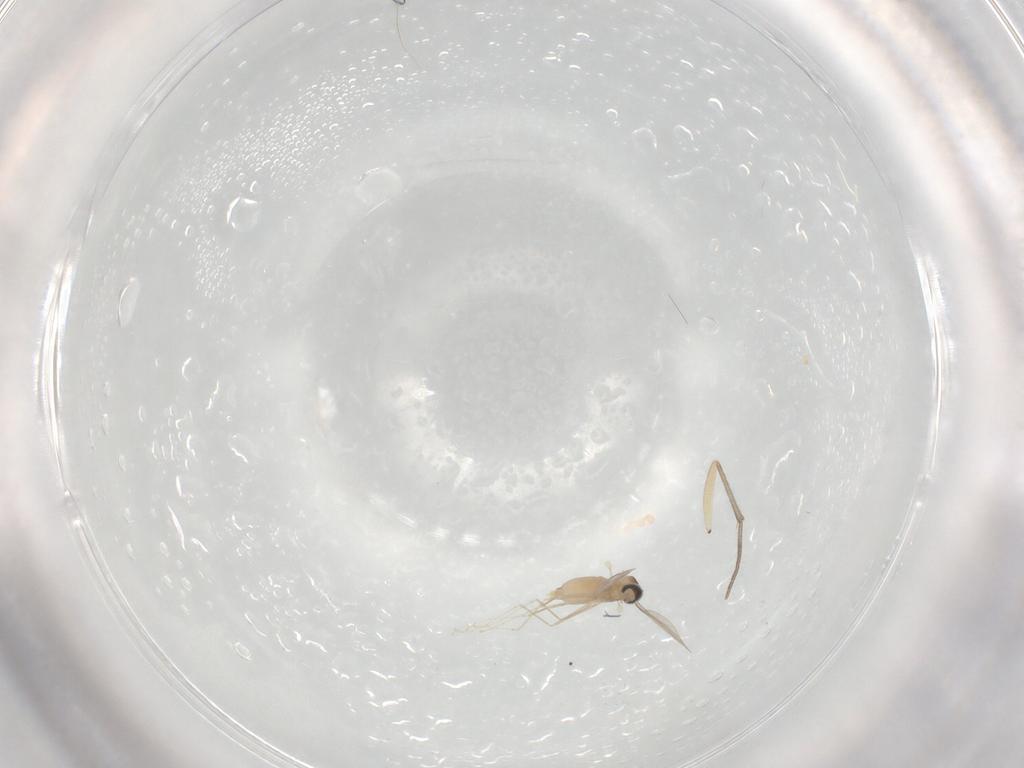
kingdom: Animalia
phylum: Arthropoda
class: Insecta
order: Diptera
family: Cecidomyiidae
